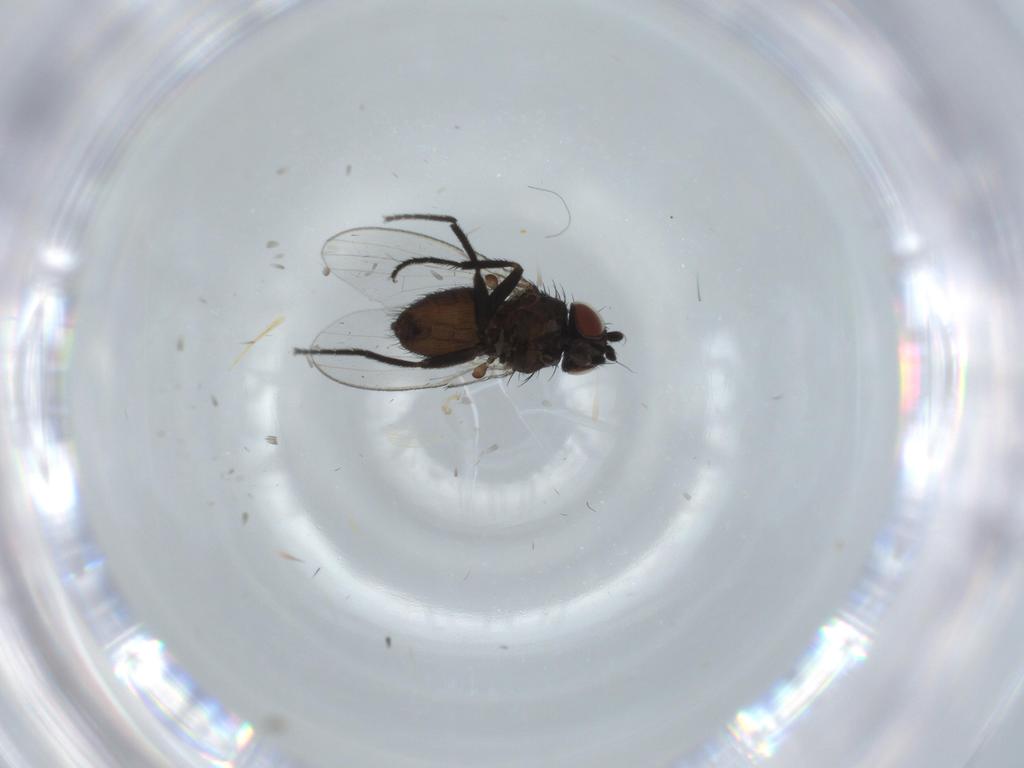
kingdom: Animalia
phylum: Arthropoda
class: Insecta
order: Diptera
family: Milichiidae
